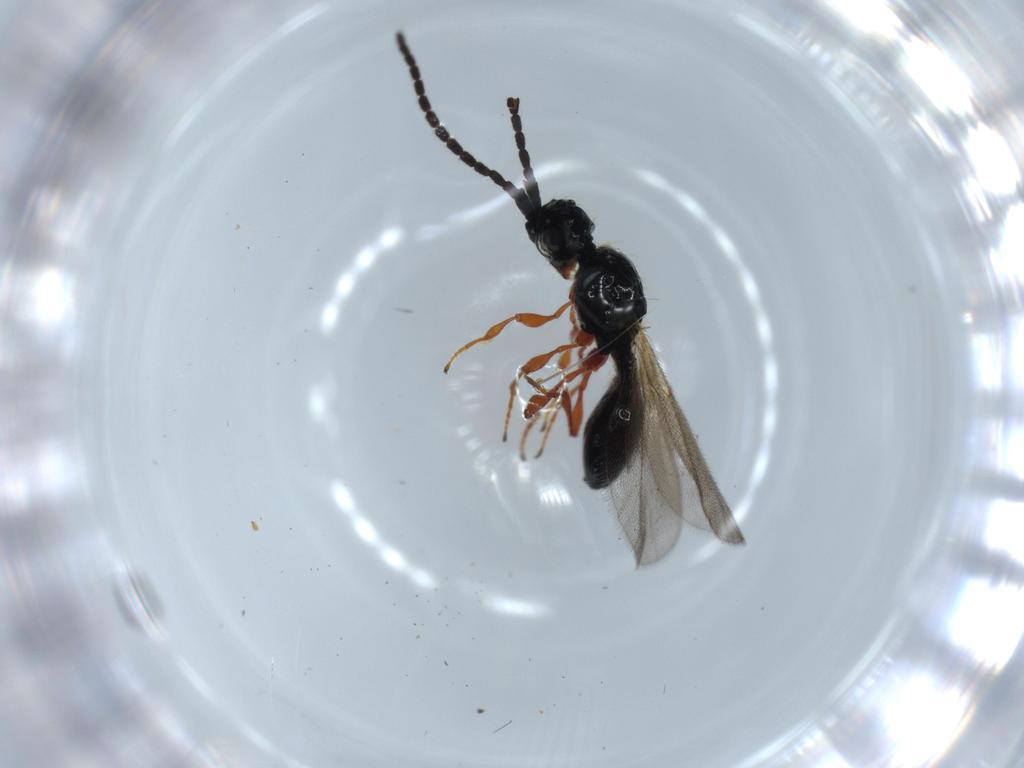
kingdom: Animalia
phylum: Arthropoda
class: Insecta
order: Hymenoptera
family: Diapriidae
